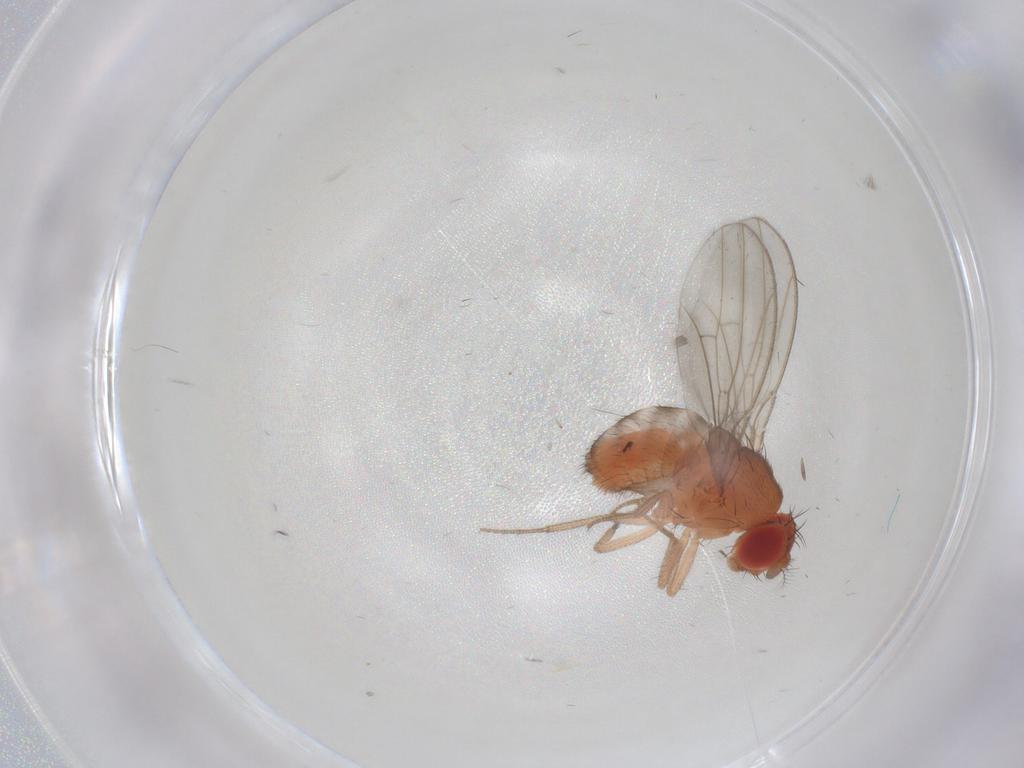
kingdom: Animalia
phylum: Arthropoda
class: Insecta
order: Diptera
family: Drosophilidae
